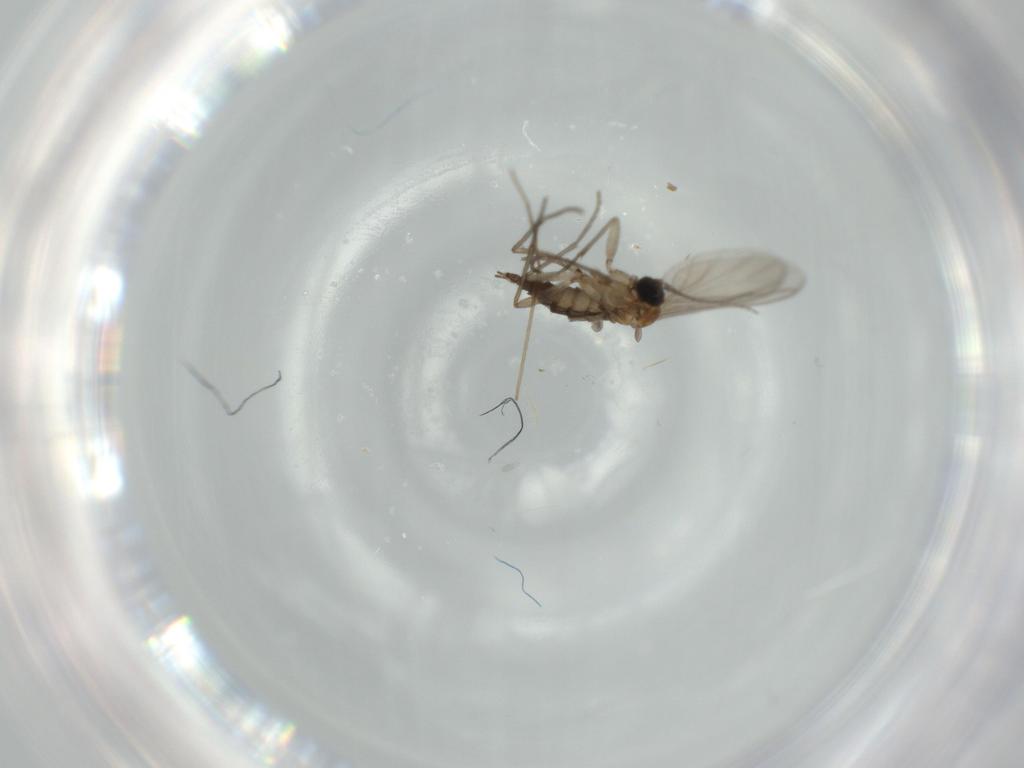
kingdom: Animalia
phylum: Arthropoda
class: Insecta
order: Diptera
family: Sciaridae
